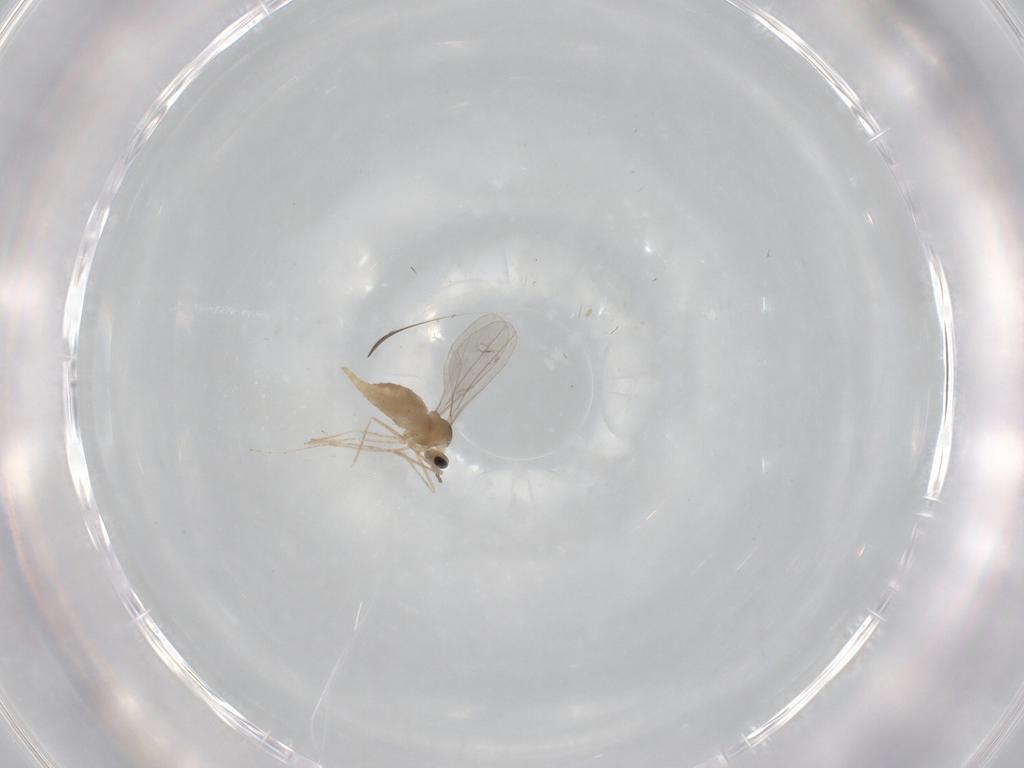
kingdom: Animalia
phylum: Arthropoda
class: Insecta
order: Diptera
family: Cecidomyiidae
